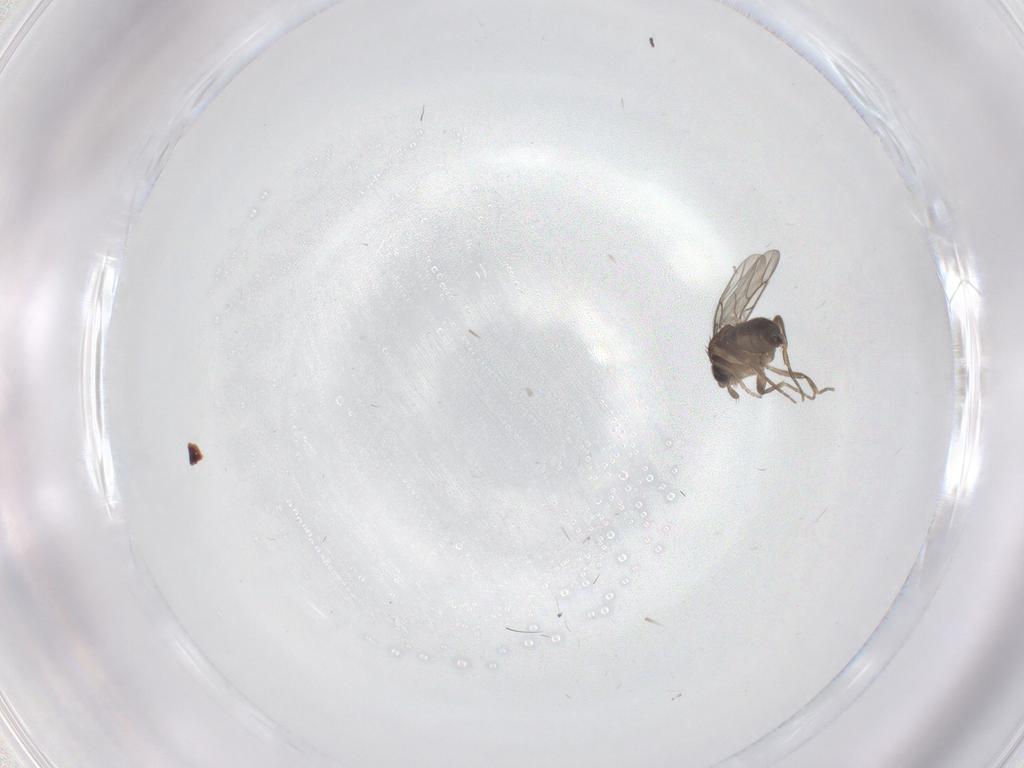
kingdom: Animalia
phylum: Arthropoda
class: Insecta
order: Diptera
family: Phoridae
